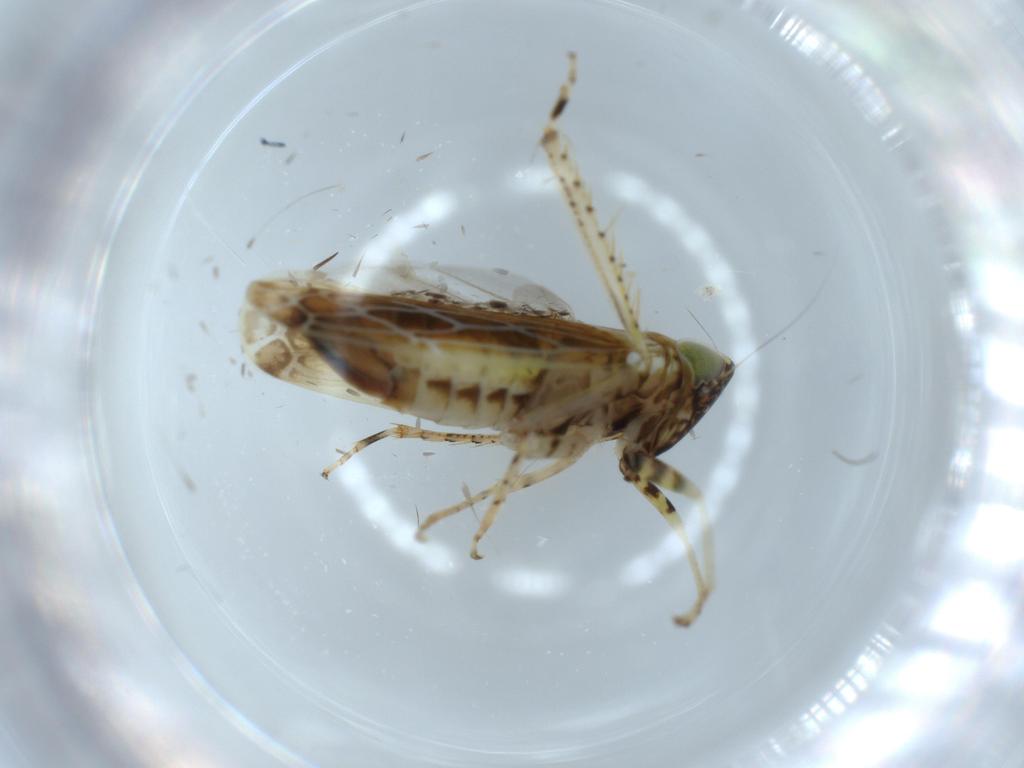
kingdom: Animalia
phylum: Arthropoda
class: Insecta
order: Hemiptera
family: Cicadellidae
